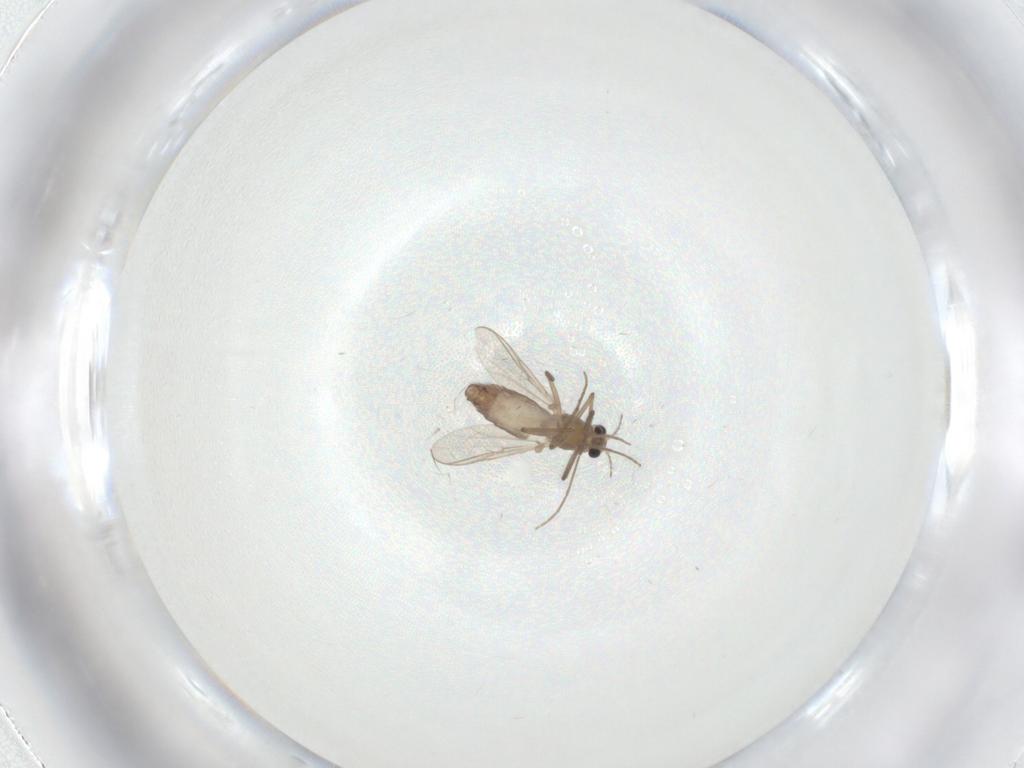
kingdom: Animalia
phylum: Arthropoda
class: Insecta
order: Diptera
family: Chironomidae
